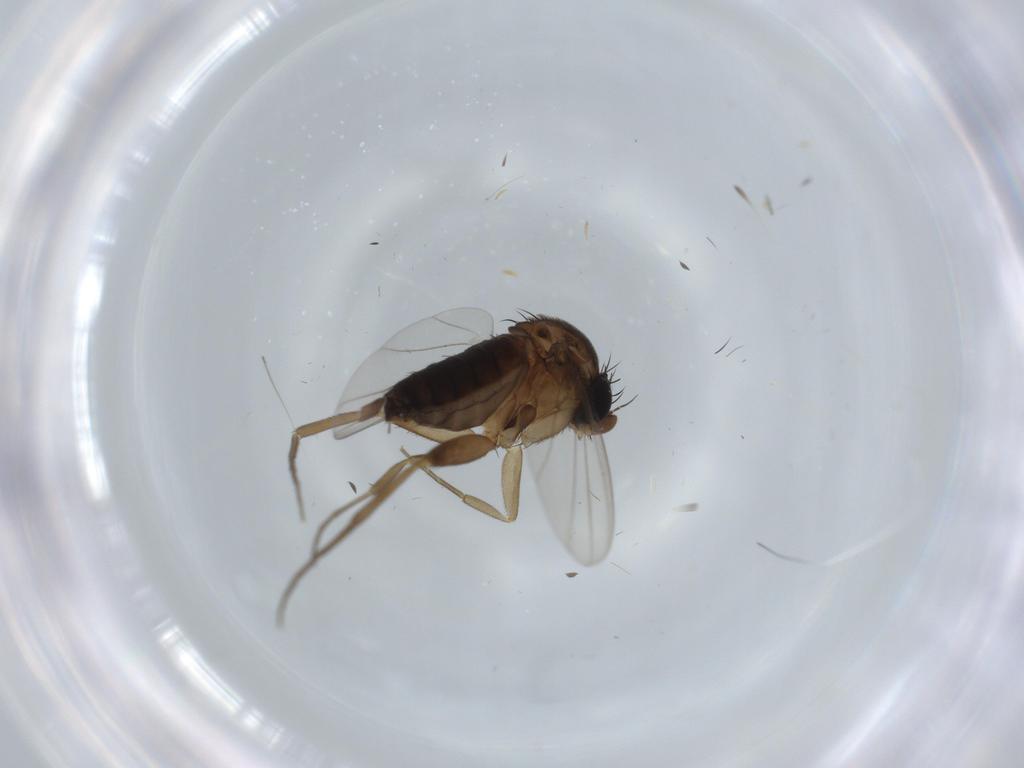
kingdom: Animalia
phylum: Arthropoda
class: Insecta
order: Diptera
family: Phoridae
